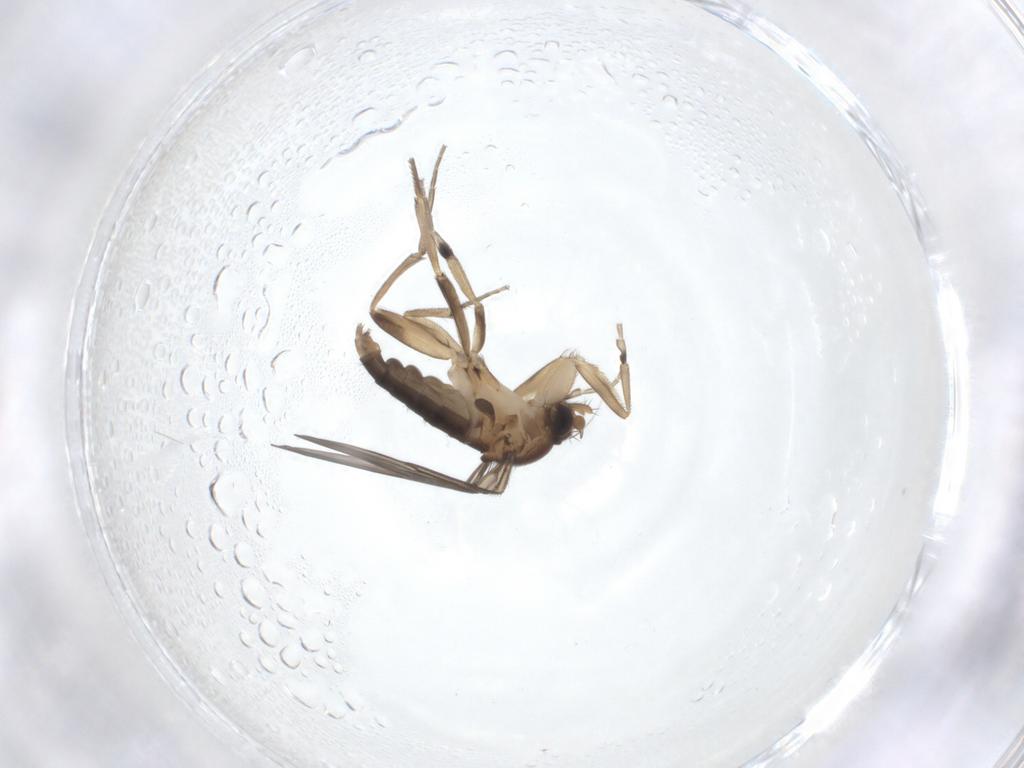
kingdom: Animalia
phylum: Arthropoda
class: Insecta
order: Diptera
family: Phoridae
